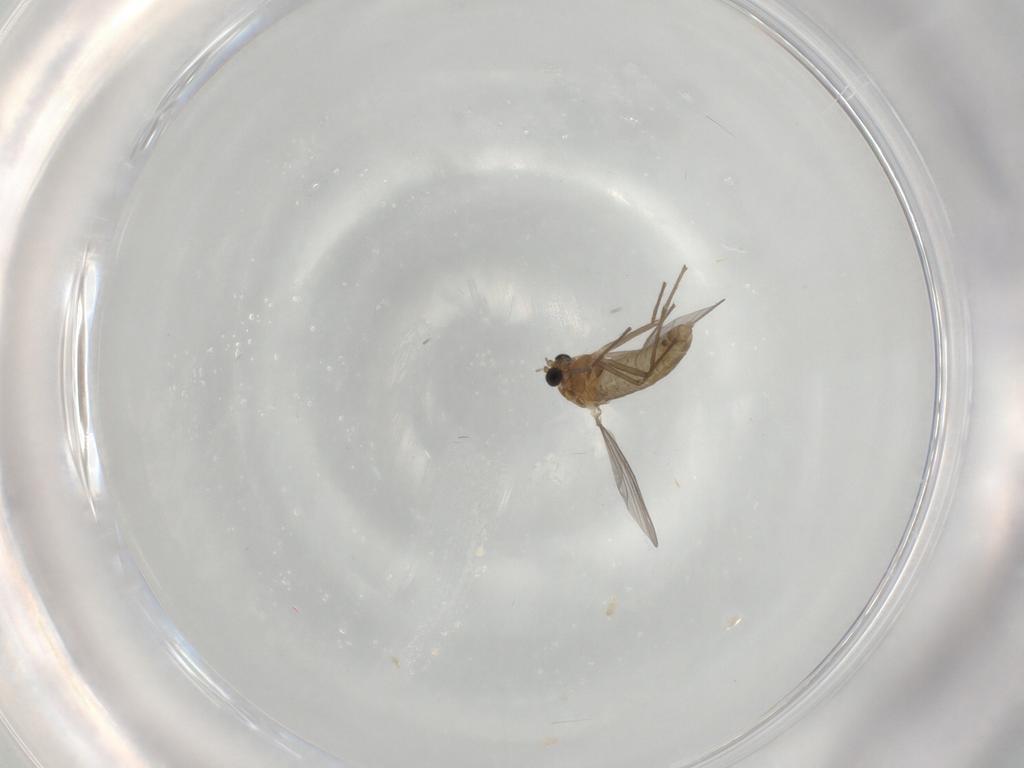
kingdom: Animalia
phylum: Arthropoda
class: Insecta
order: Diptera
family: Chironomidae
